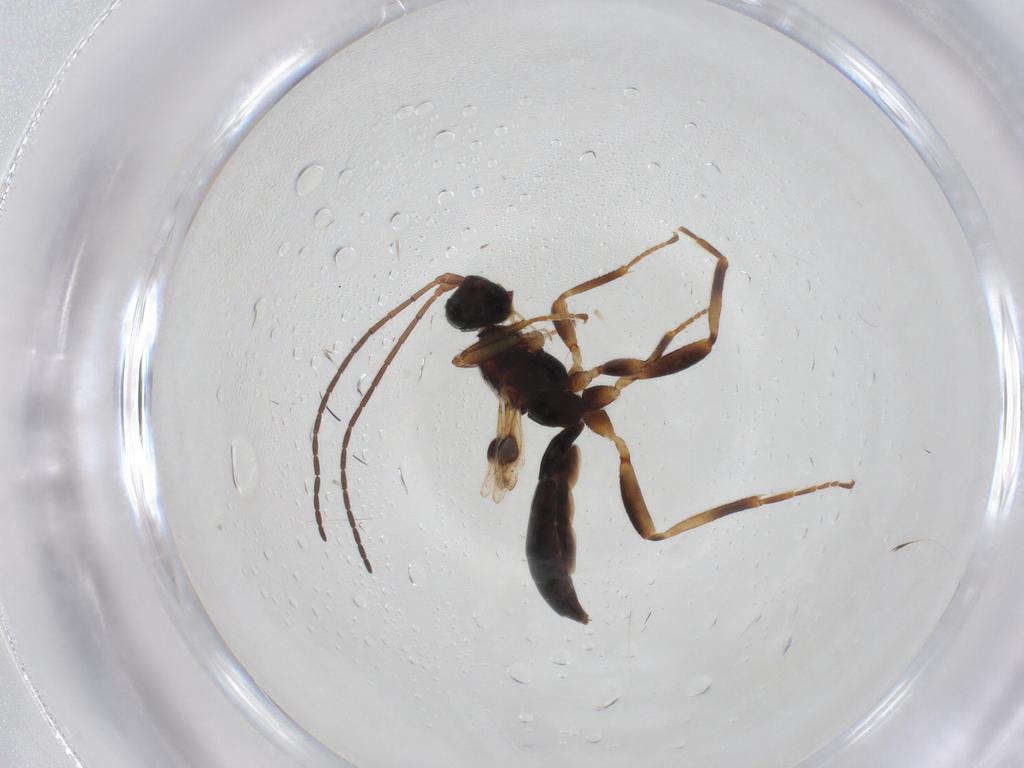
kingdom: Animalia
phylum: Arthropoda
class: Insecta
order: Hymenoptera
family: Braconidae
